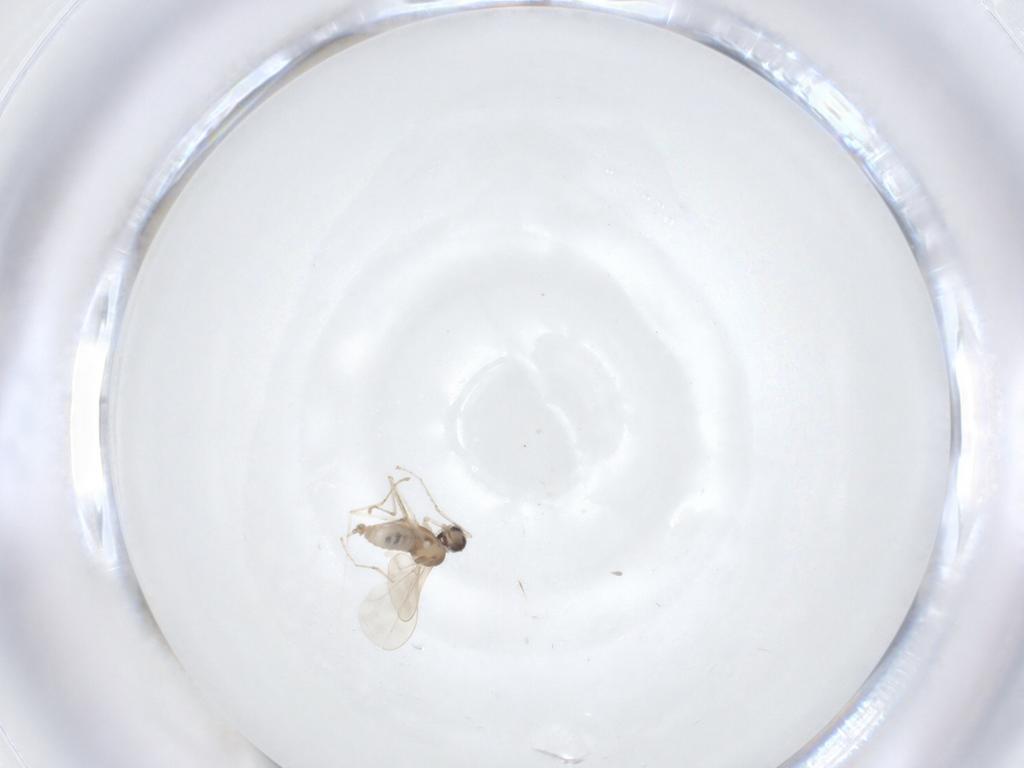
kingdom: Animalia
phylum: Arthropoda
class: Insecta
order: Diptera
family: Cecidomyiidae
